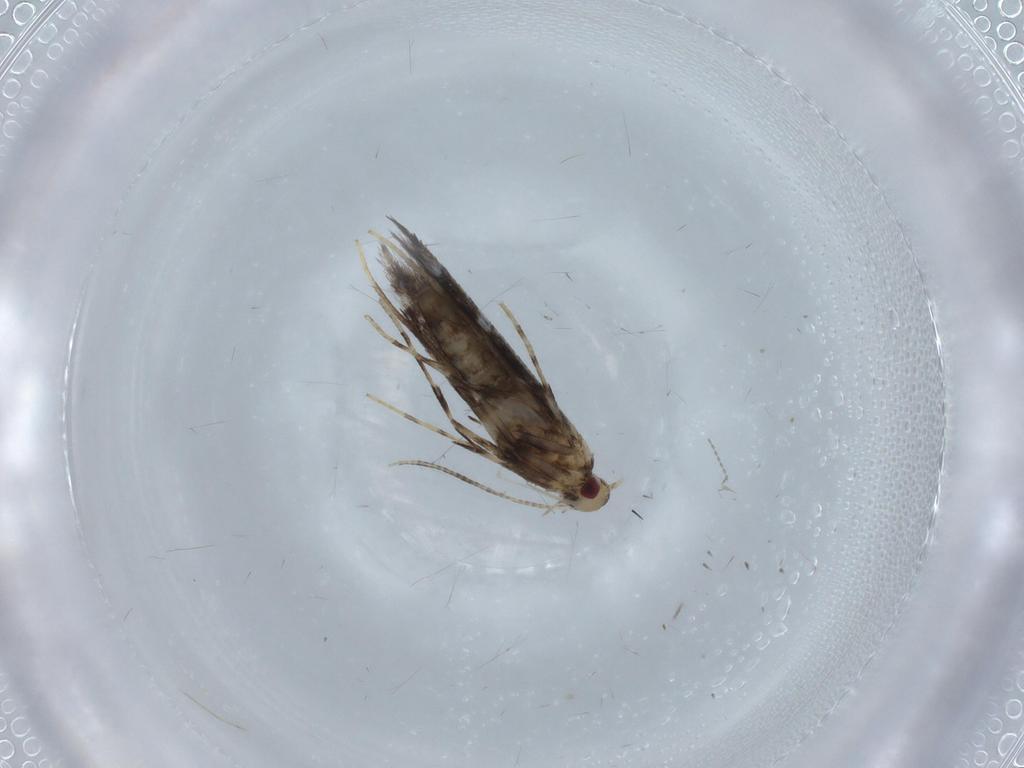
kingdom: Animalia
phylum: Arthropoda
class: Insecta
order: Lepidoptera
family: Gracillariidae
